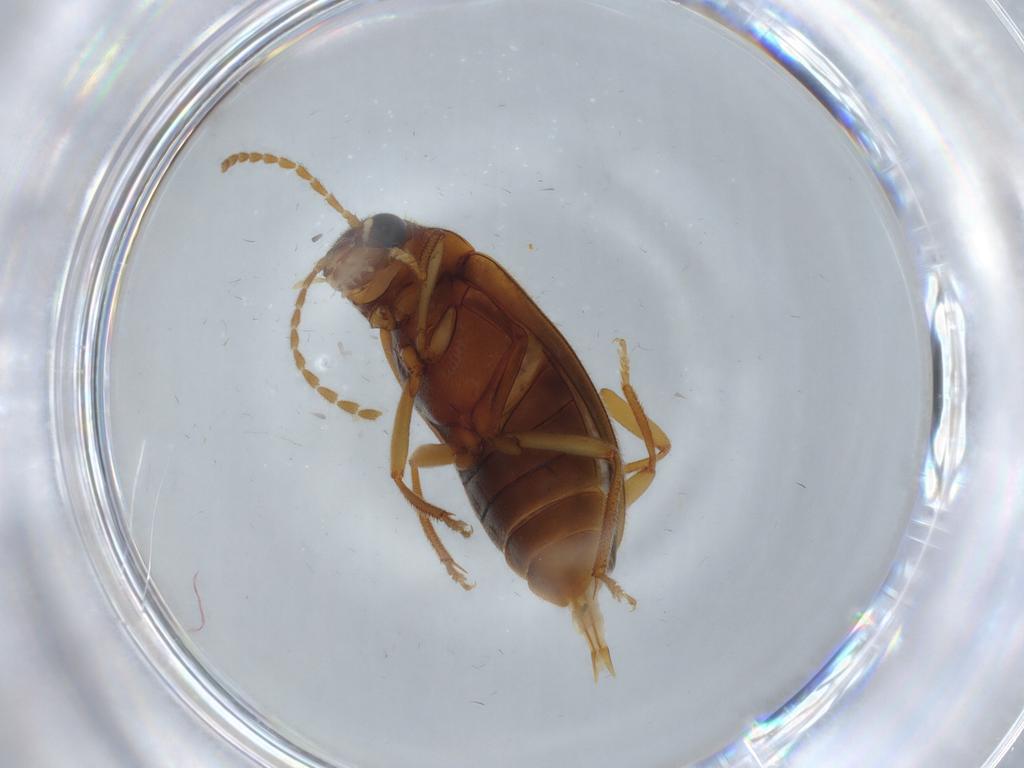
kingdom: Animalia
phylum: Arthropoda
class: Insecta
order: Coleoptera
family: Ptilodactylidae
